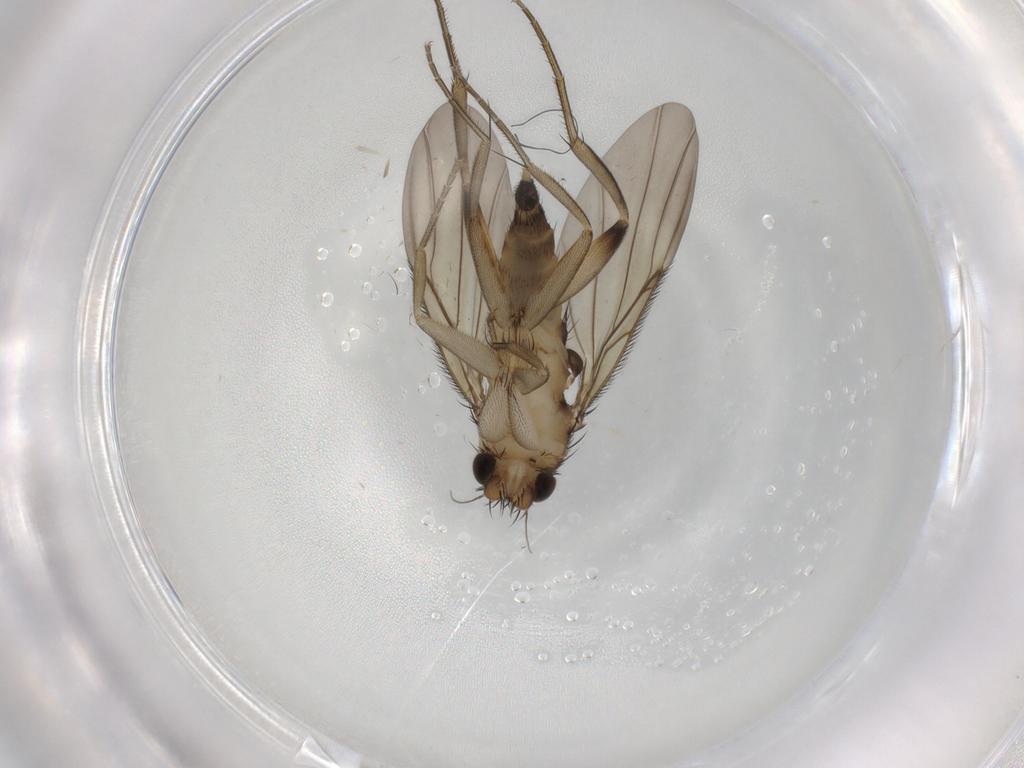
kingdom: Animalia
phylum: Arthropoda
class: Insecta
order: Diptera
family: Phoridae
